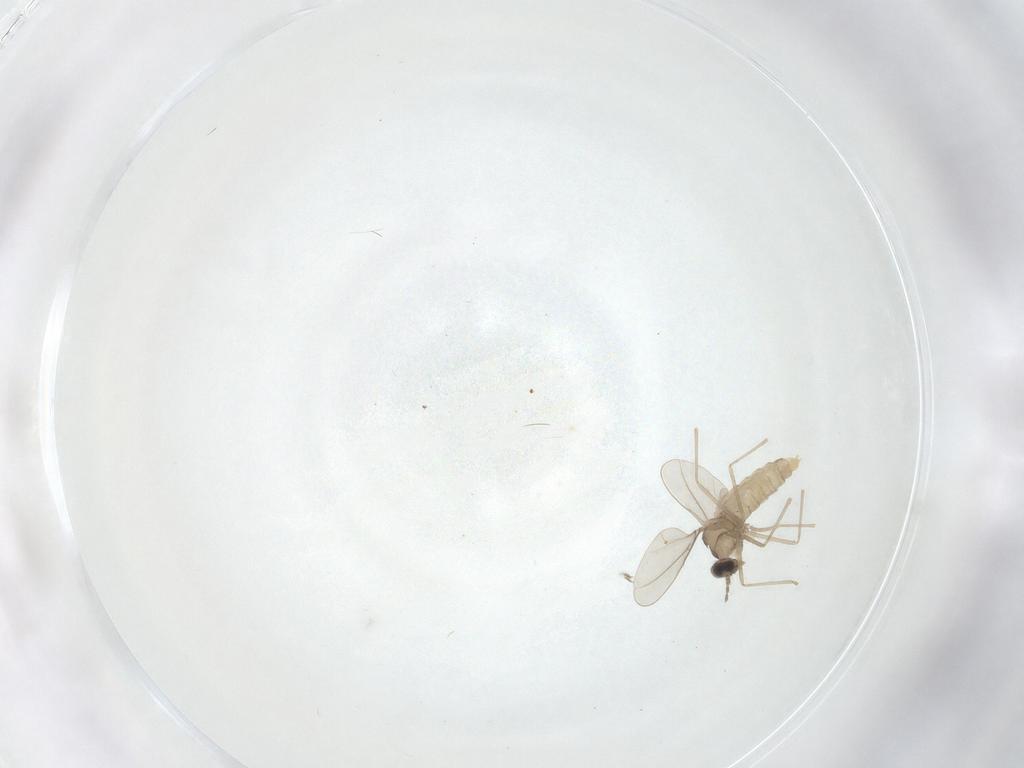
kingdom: Animalia
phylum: Arthropoda
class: Insecta
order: Diptera
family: Cecidomyiidae
